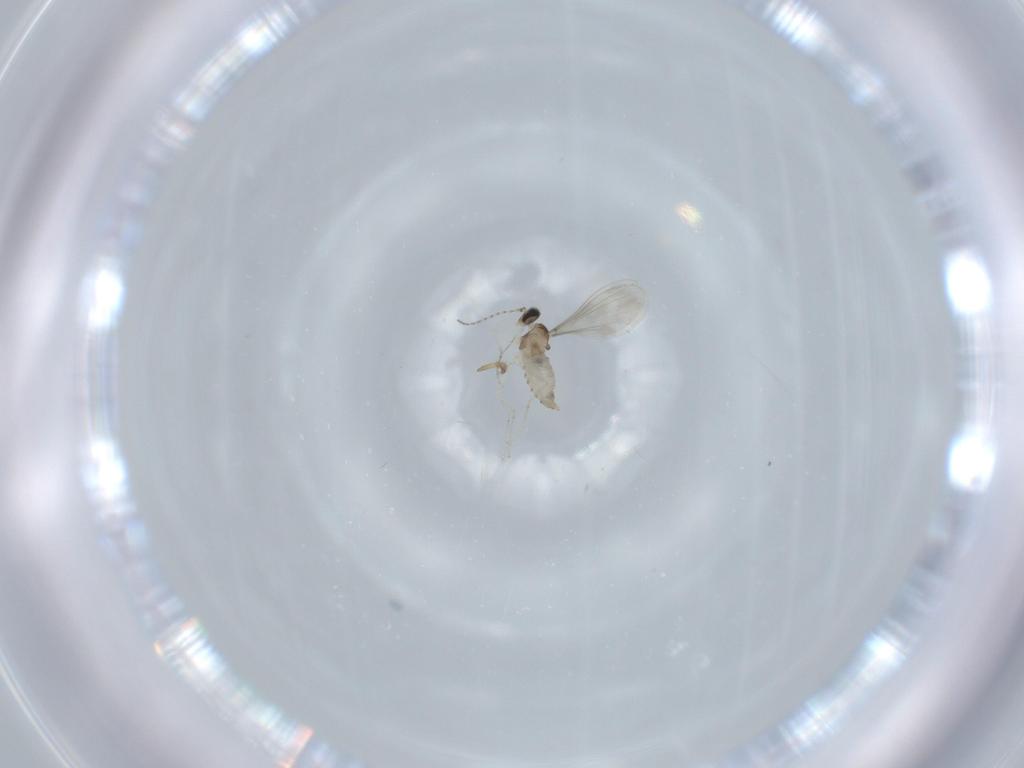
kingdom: Animalia
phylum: Arthropoda
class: Insecta
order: Diptera
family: Cecidomyiidae
